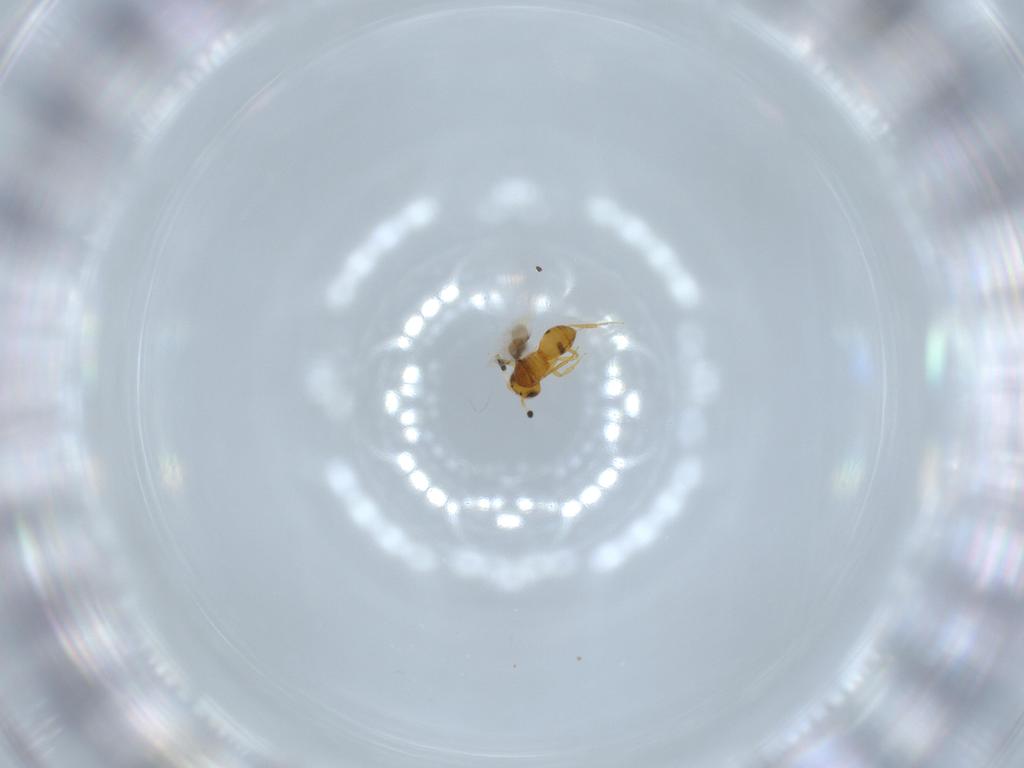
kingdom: Animalia
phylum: Arthropoda
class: Insecta
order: Hymenoptera
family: Scelionidae
